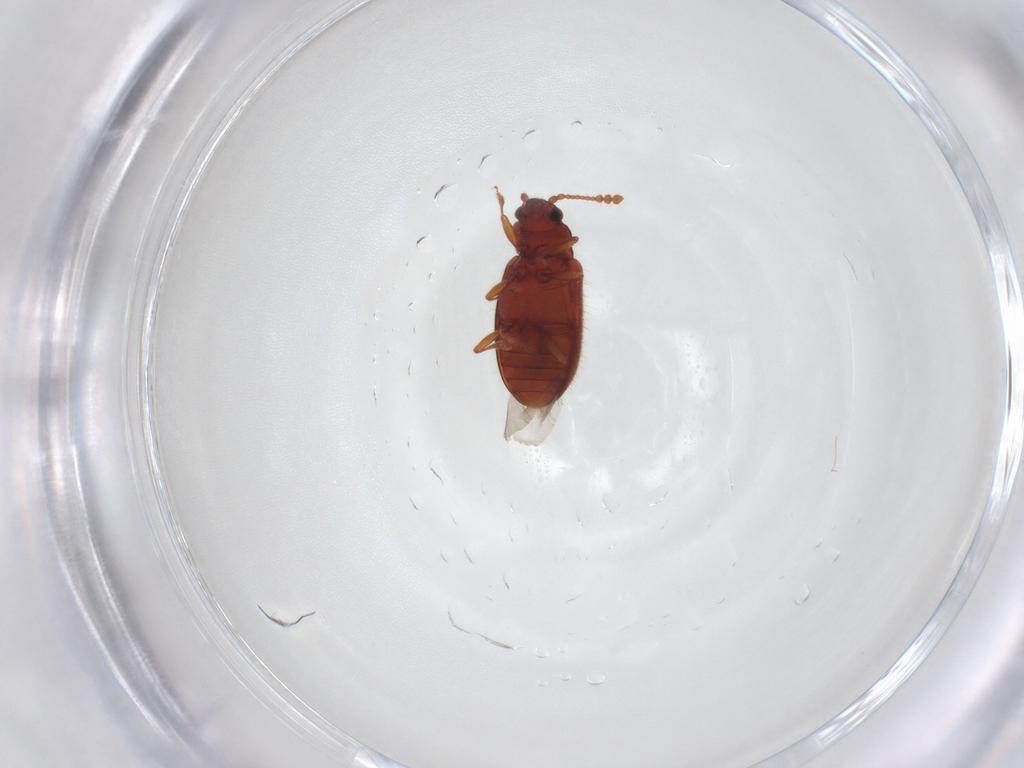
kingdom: Animalia
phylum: Arthropoda
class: Insecta
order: Coleoptera
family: Cryptophagidae
